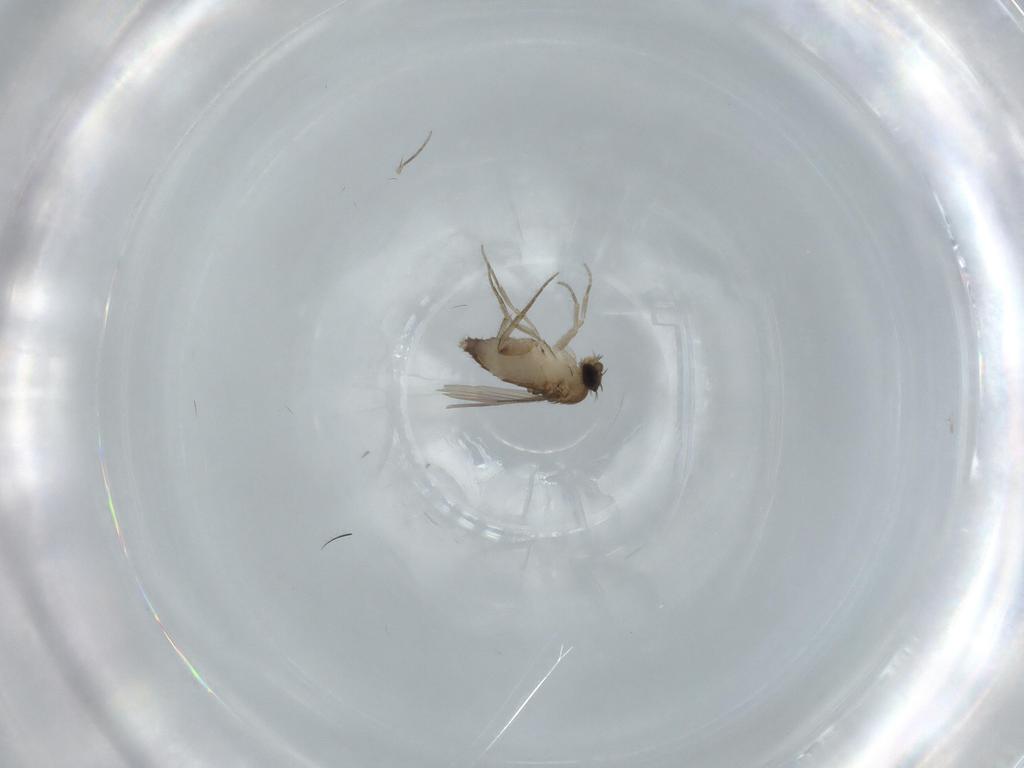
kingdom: Animalia
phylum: Arthropoda
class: Insecta
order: Diptera
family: Phoridae
